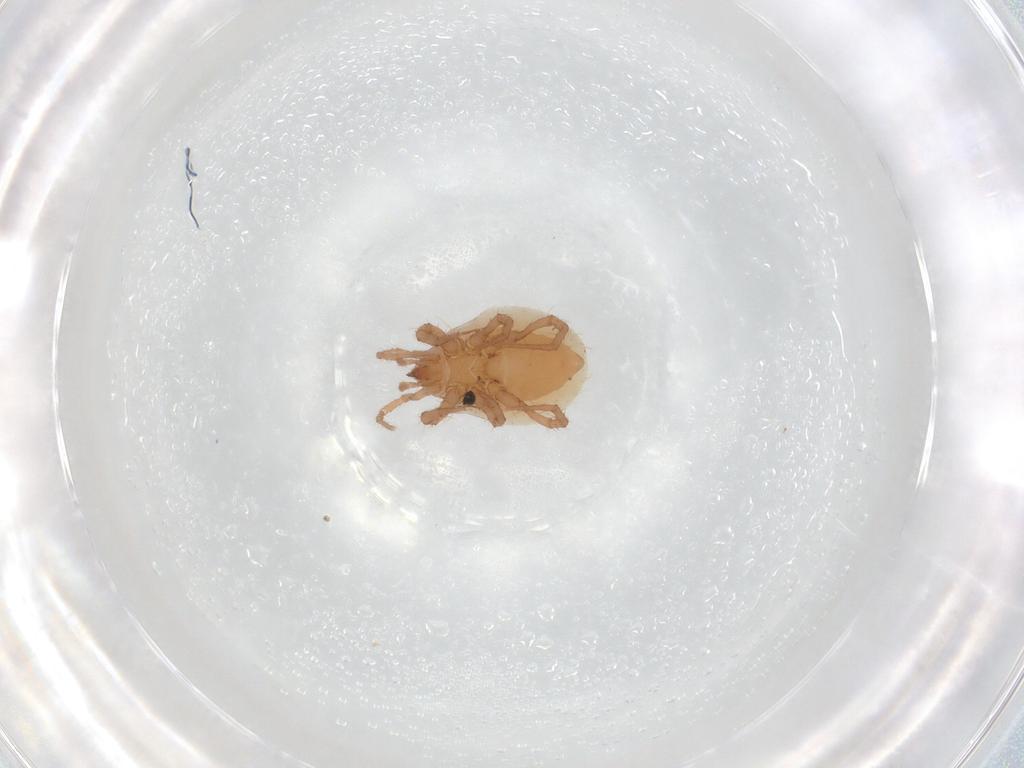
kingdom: Animalia
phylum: Arthropoda
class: Arachnida
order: Mesostigmata
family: Parasitidae
